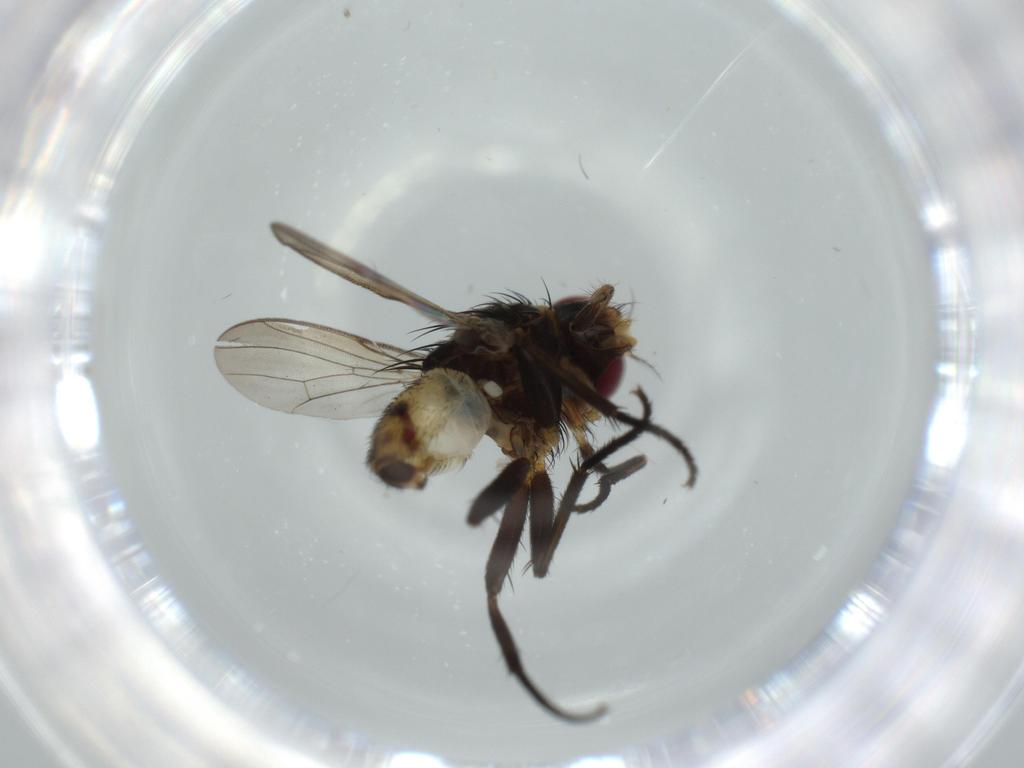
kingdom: Animalia
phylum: Arthropoda
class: Insecta
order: Diptera
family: Anthomyiidae
